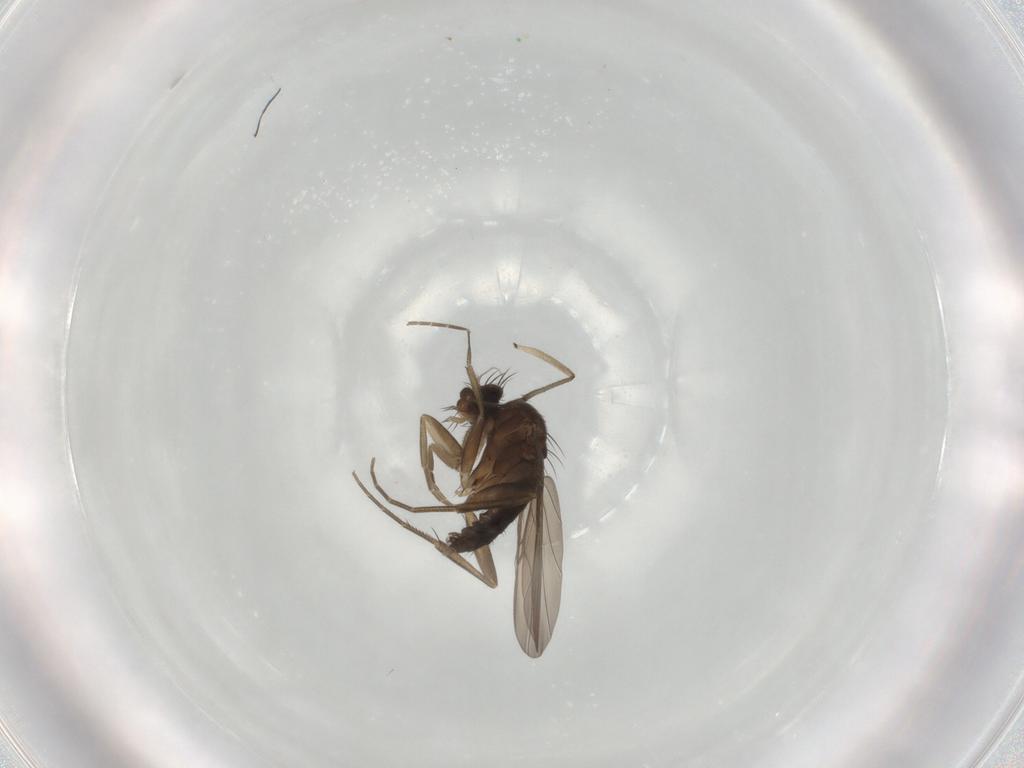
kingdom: Animalia
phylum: Arthropoda
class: Insecta
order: Diptera
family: Phoridae
